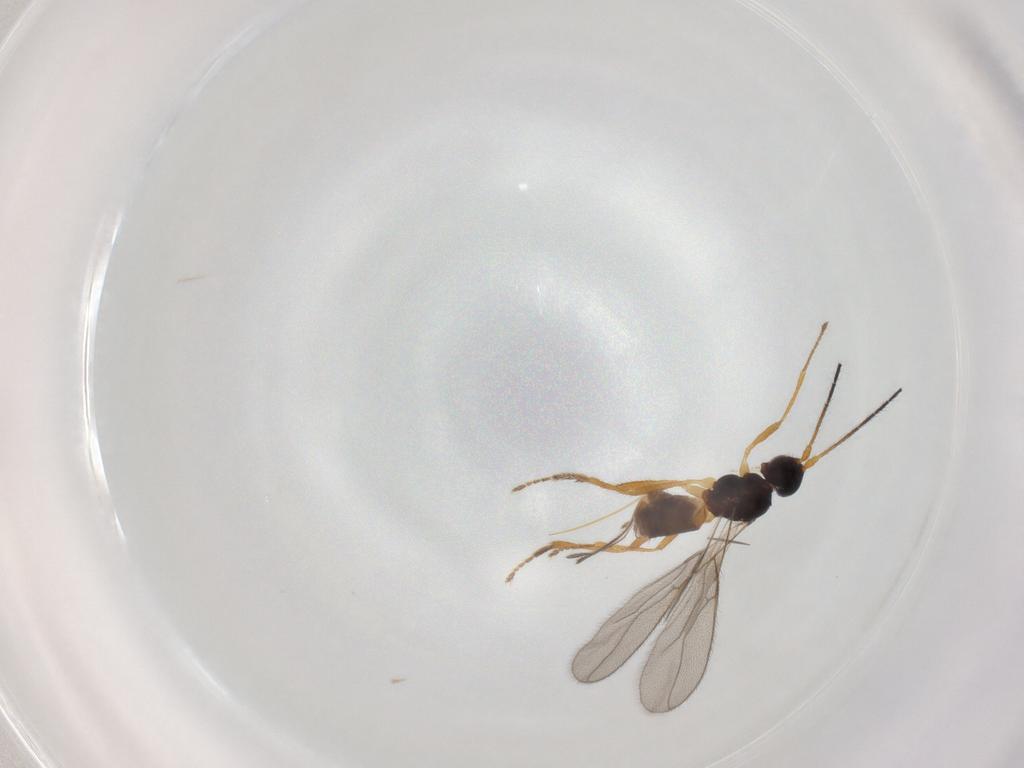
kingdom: Animalia
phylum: Arthropoda
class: Insecta
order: Hymenoptera
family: Braconidae
